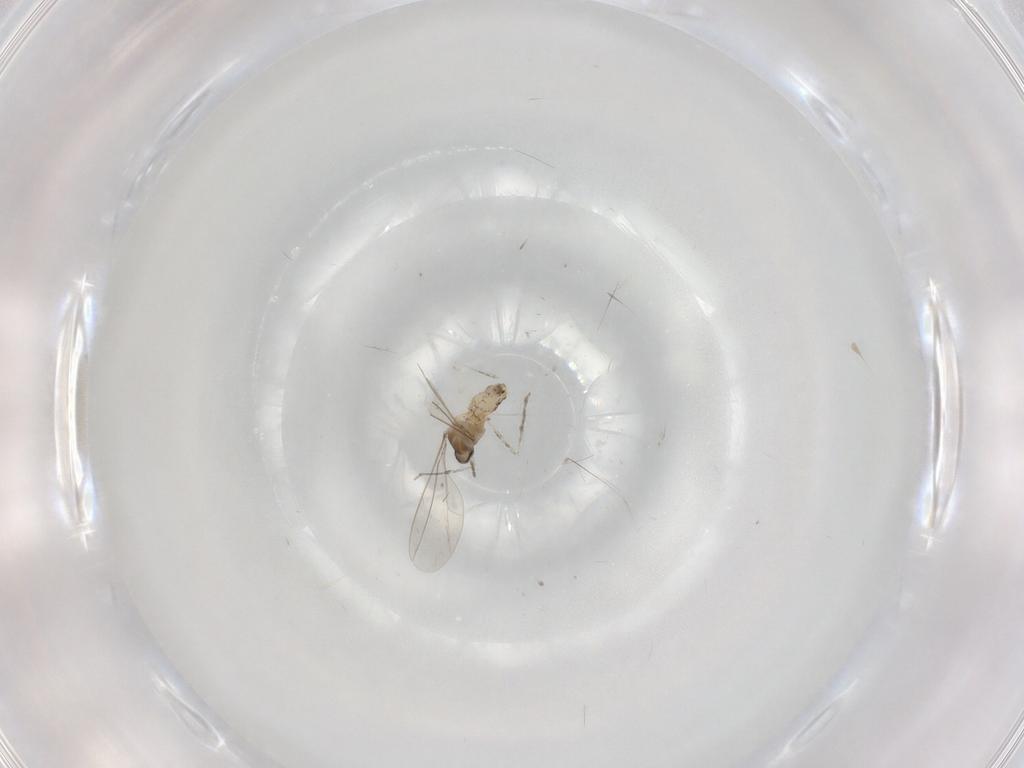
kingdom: Animalia
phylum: Arthropoda
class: Insecta
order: Diptera
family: Cecidomyiidae
